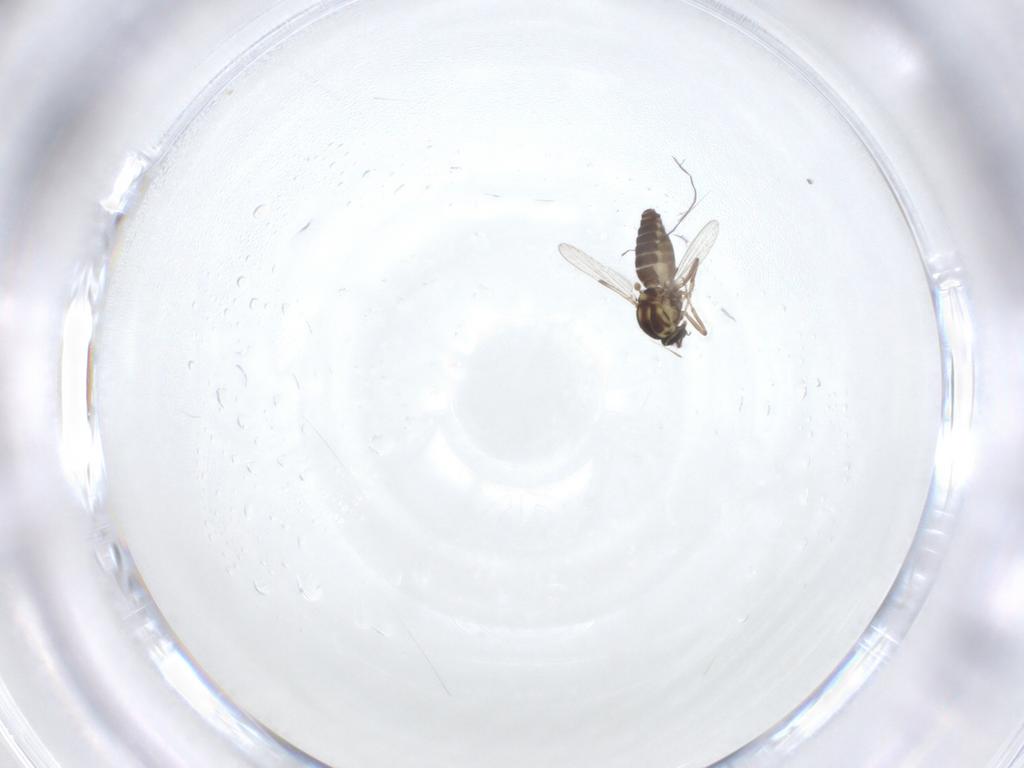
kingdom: Animalia
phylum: Arthropoda
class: Insecta
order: Diptera
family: Ceratopogonidae
